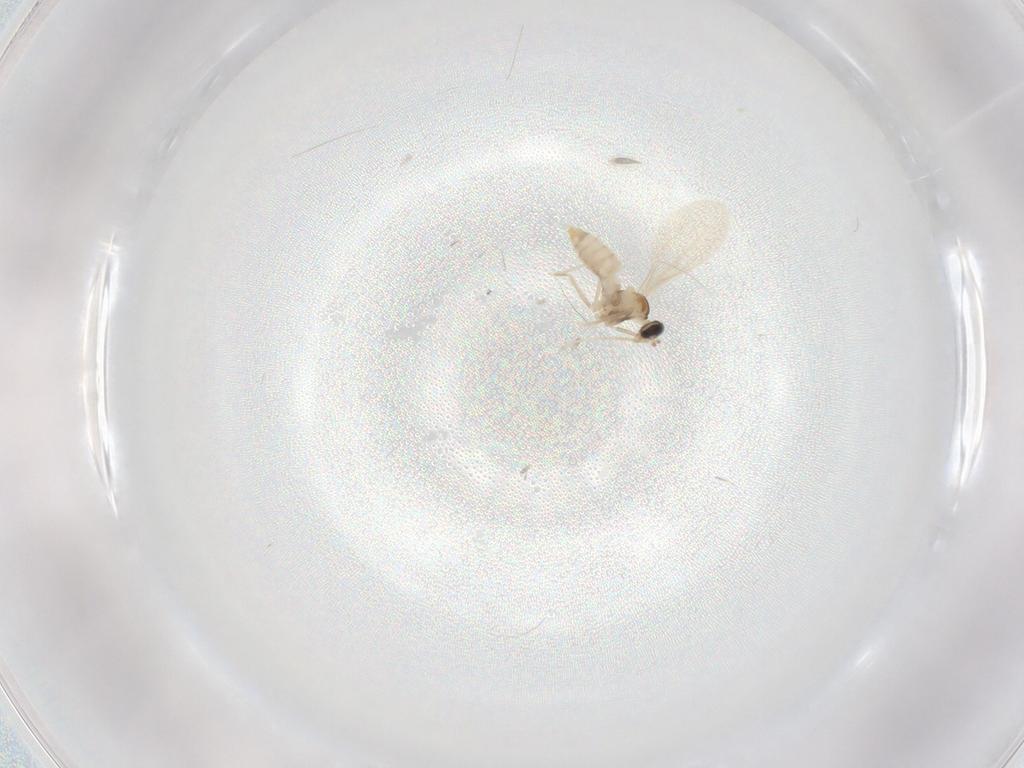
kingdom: Animalia
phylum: Arthropoda
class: Insecta
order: Diptera
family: Cecidomyiidae
